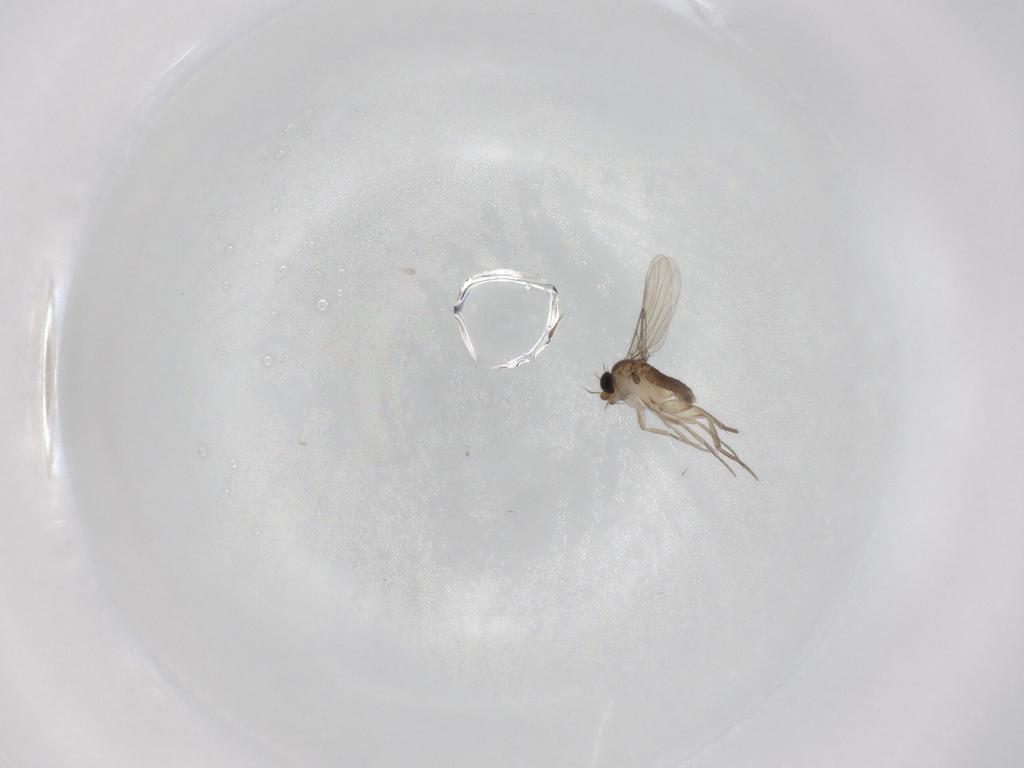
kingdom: Animalia
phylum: Arthropoda
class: Insecta
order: Diptera
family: Phoridae
